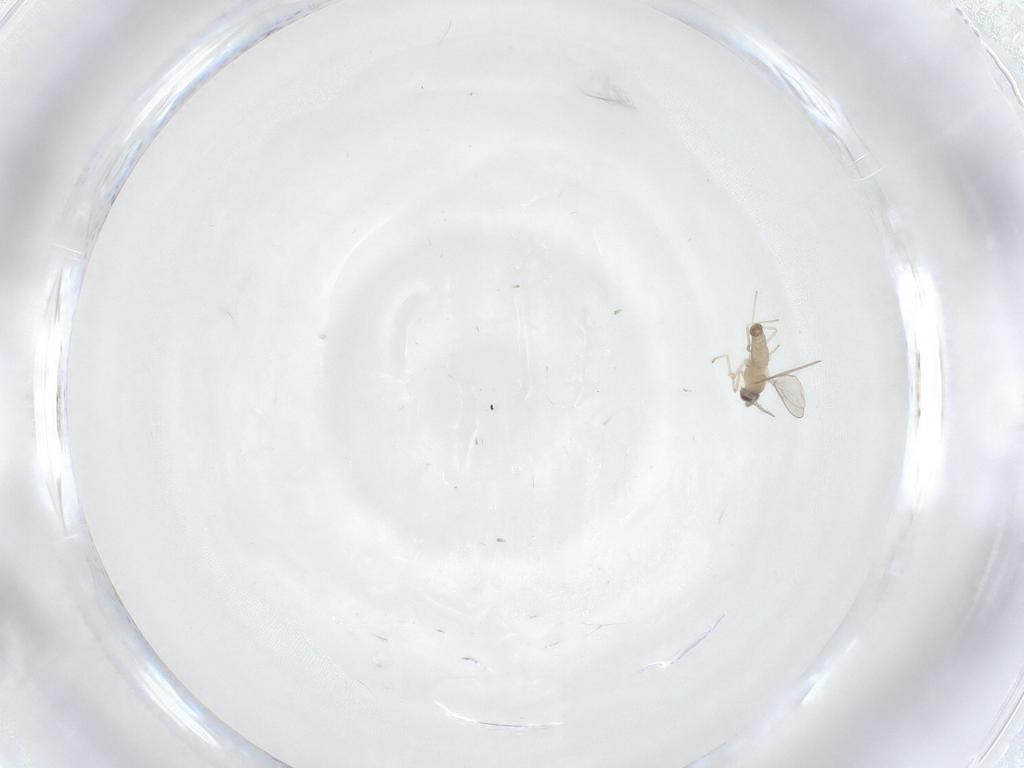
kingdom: Animalia
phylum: Arthropoda
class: Insecta
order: Diptera
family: Cecidomyiidae
